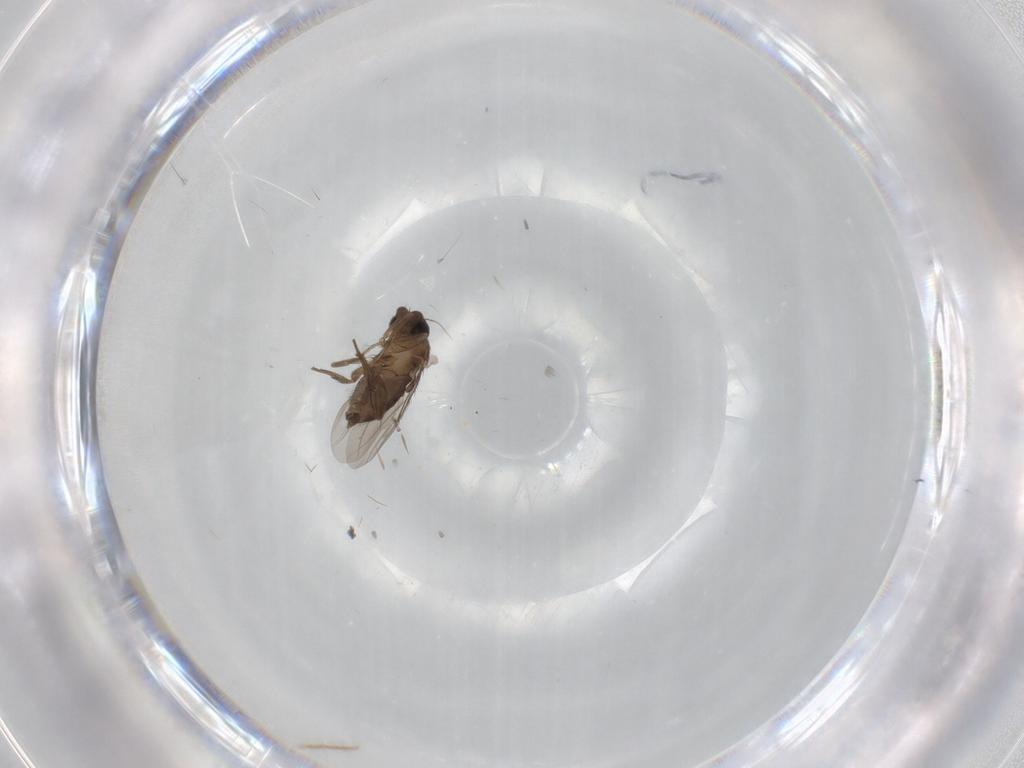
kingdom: Animalia
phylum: Arthropoda
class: Insecta
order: Diptera
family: Phoridae
